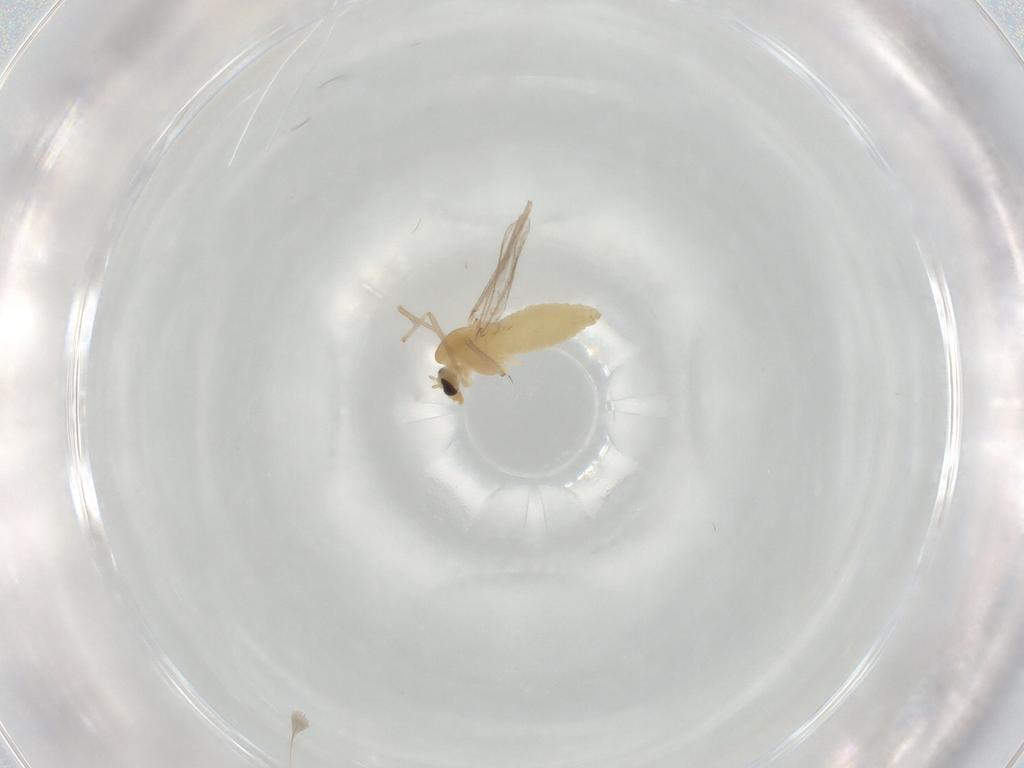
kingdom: Animalia
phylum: Arthropoda
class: Insecta
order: Diptera
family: Chironomidae
